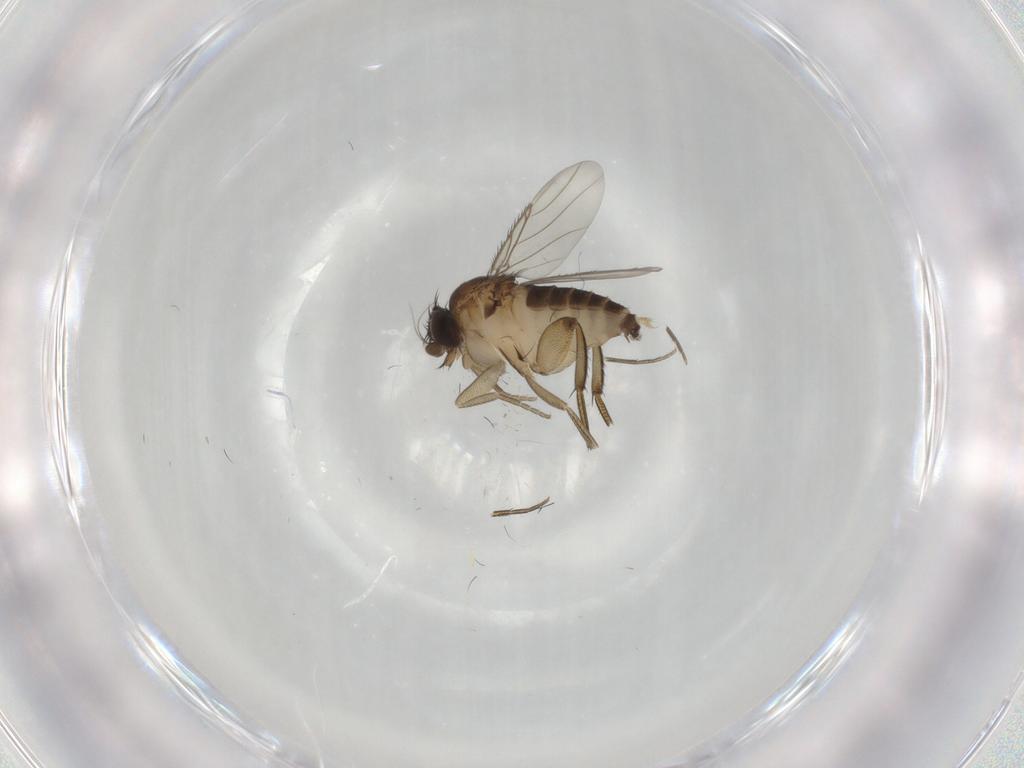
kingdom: Animalia
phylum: Arthropoda
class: Insecta
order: Diptera
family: Phoridae
